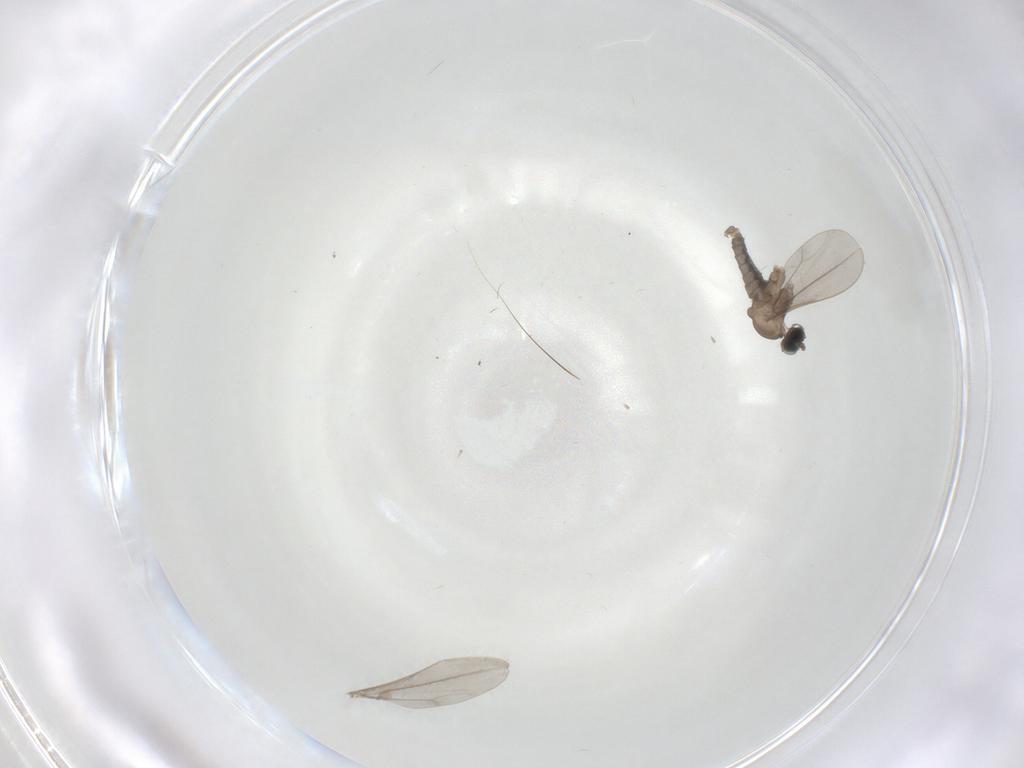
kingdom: Animalia
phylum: Arthropoda
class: Insecta
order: Diptera
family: Cecidomyiidae
